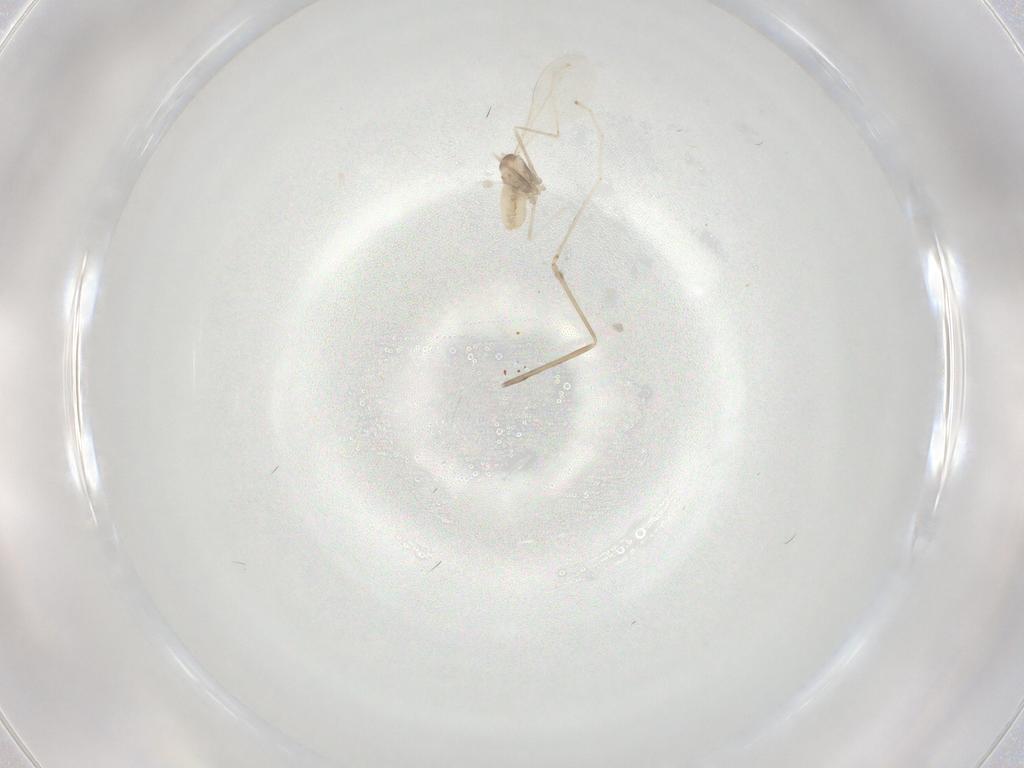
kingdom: Animalia
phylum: Arthropoda
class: Insecta
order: Diptera
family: Cecidomyiidae
